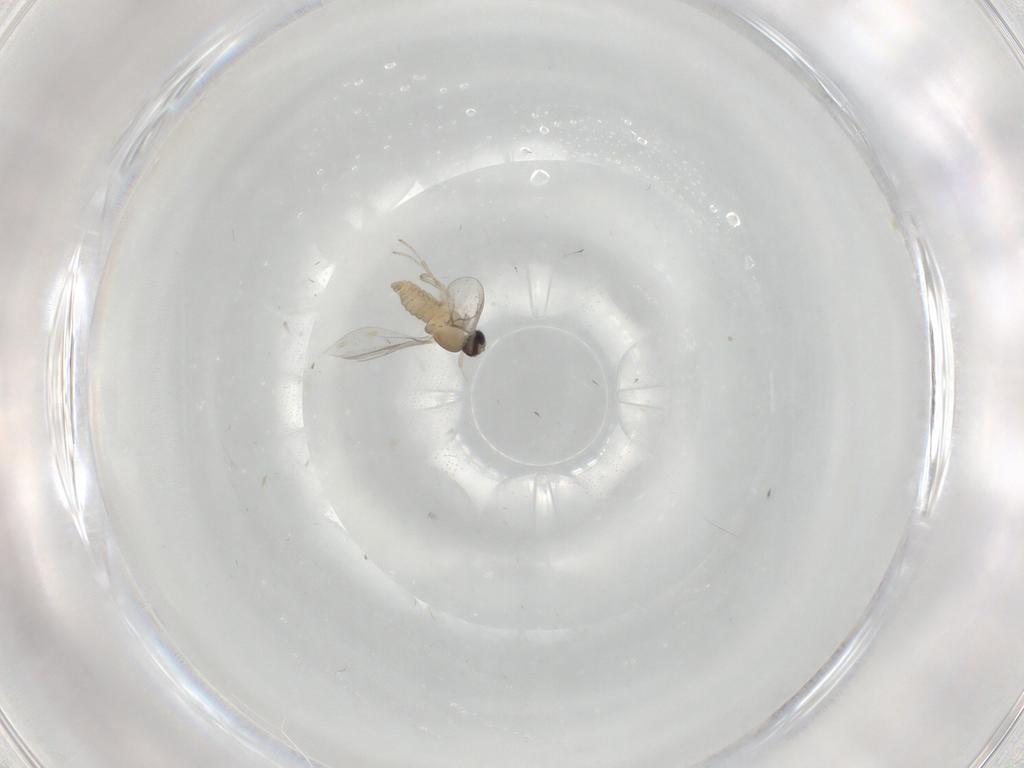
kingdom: Animalia
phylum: Arthropoda
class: Insecta
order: Diptera
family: Cecidomyiidae
